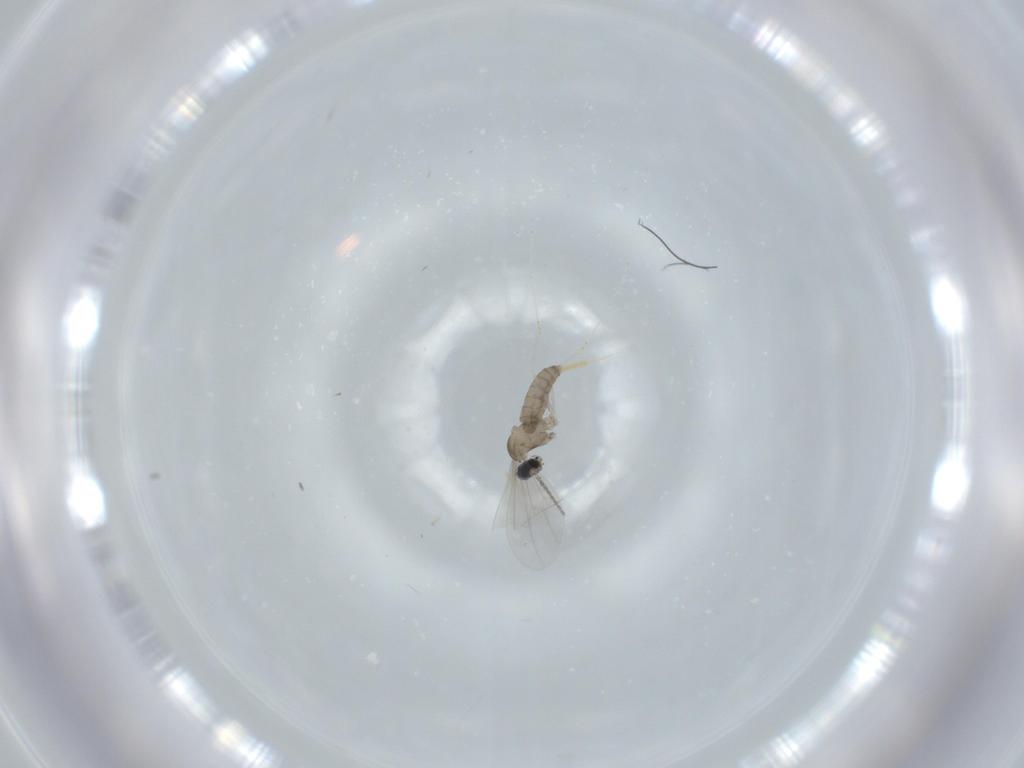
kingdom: Animalia
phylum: Arthropoda
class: Insecta
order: Diptera
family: Cecidomyiidae
